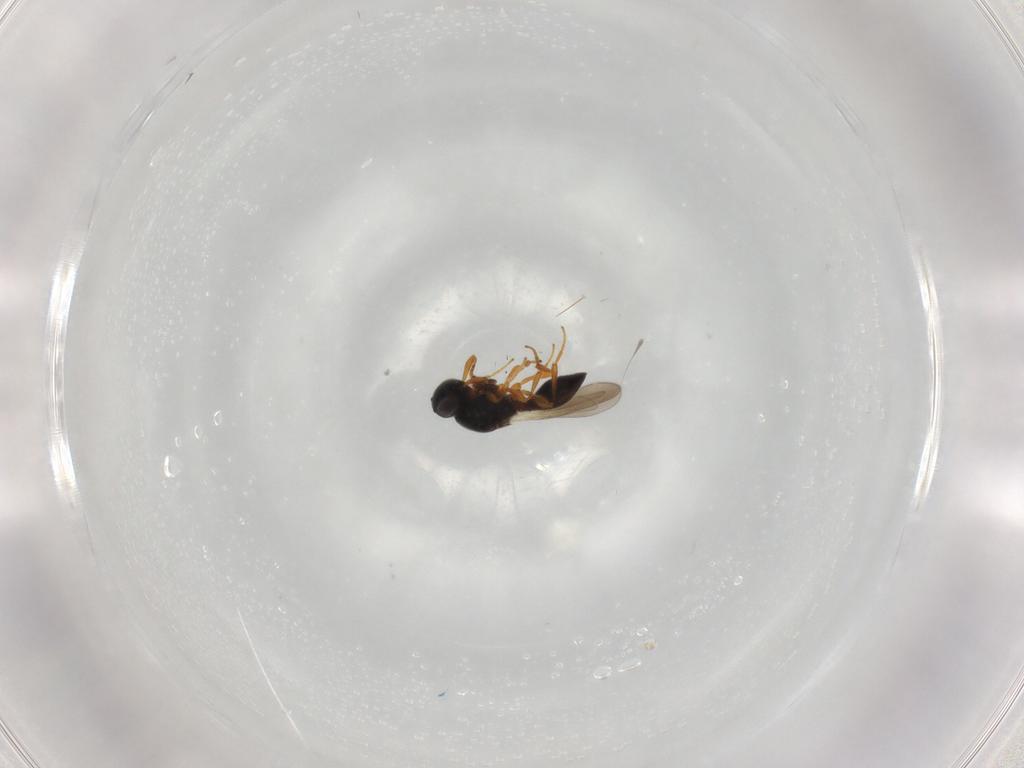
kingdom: Animalia
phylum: Arthropoda
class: Insecta
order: Hymenoptera
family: Platygastridae
